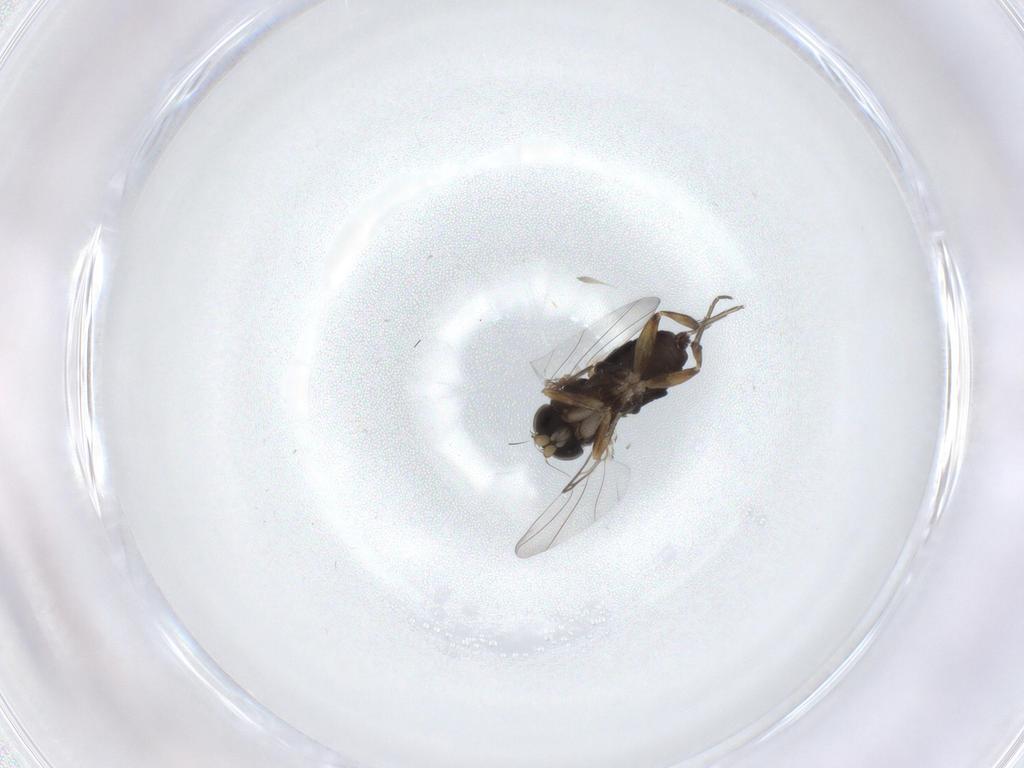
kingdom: Animalia
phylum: Arthropoda
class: Insecta
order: Diptera
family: Phoridae
